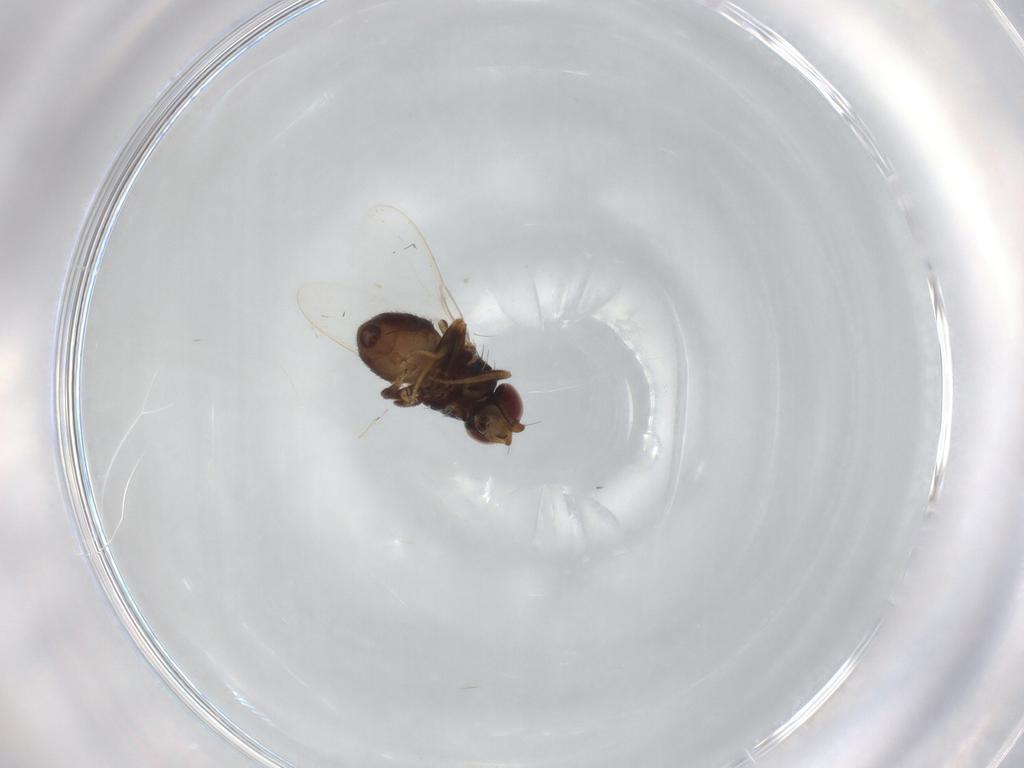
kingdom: Animalia
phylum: Arthropoda
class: Insecta
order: Diptera
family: Chloropidae
